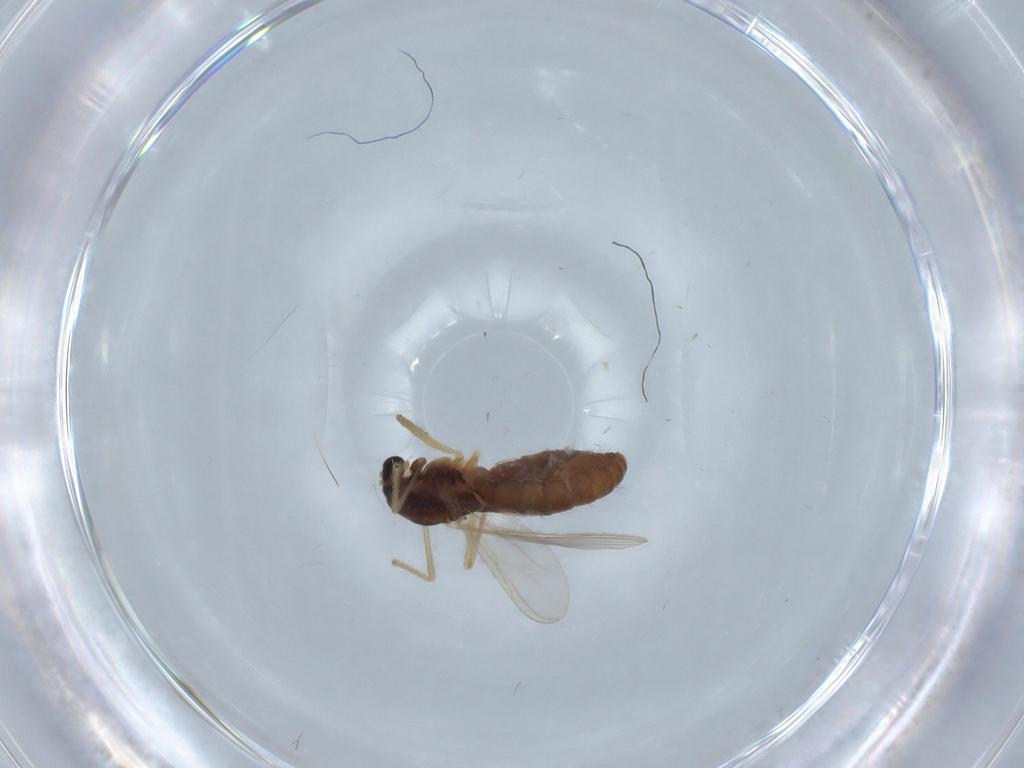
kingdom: Animalia
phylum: Arthropoda
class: Insecta
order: Diptera
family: Chironomidae
